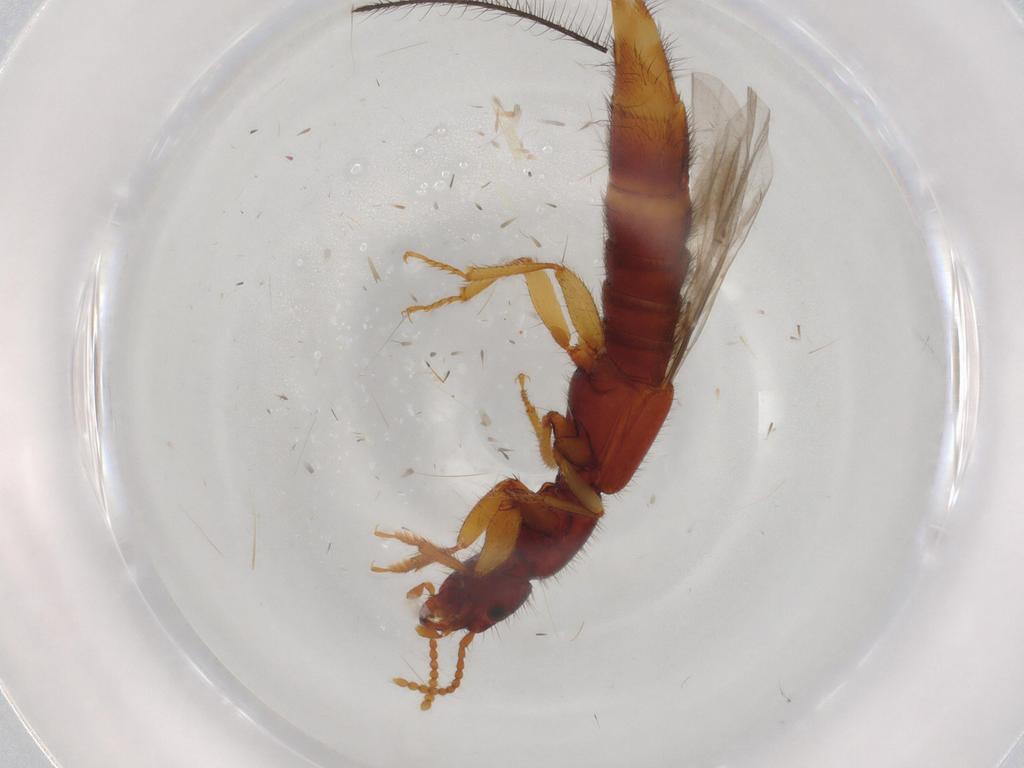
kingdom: Animalia
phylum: Arthropoda
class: Insecta
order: Coleoptera
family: Staphylinidae
